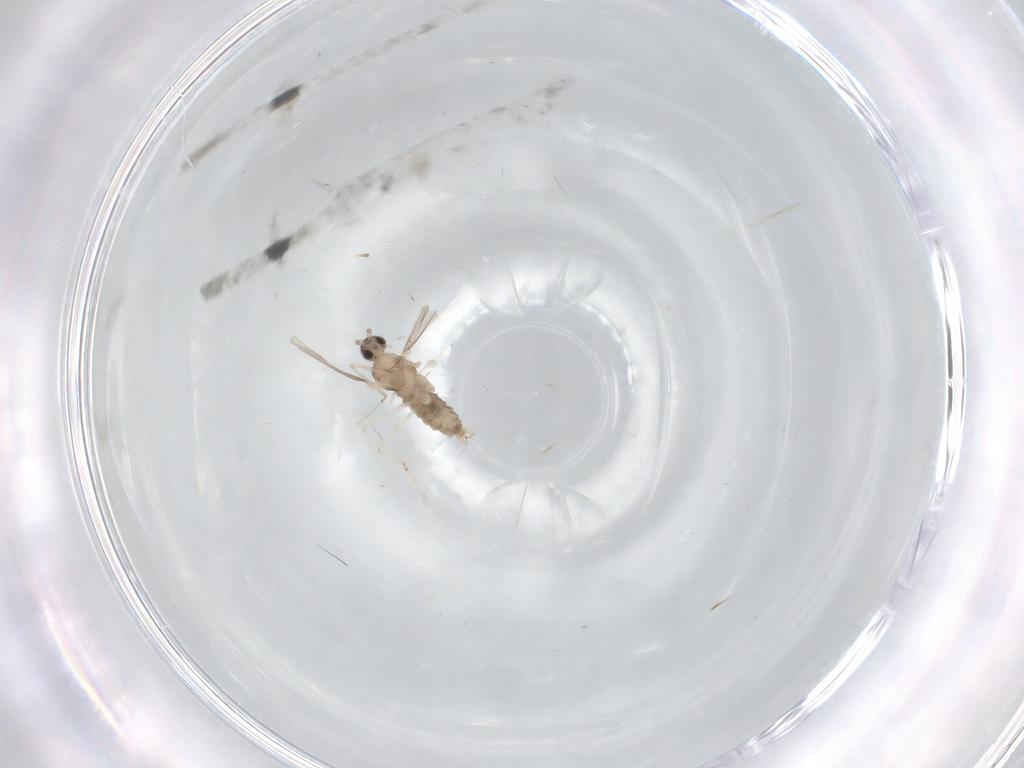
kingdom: Animalia
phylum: Arthropoda
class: Insecta
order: Diptera
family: Cecidomyiidae
